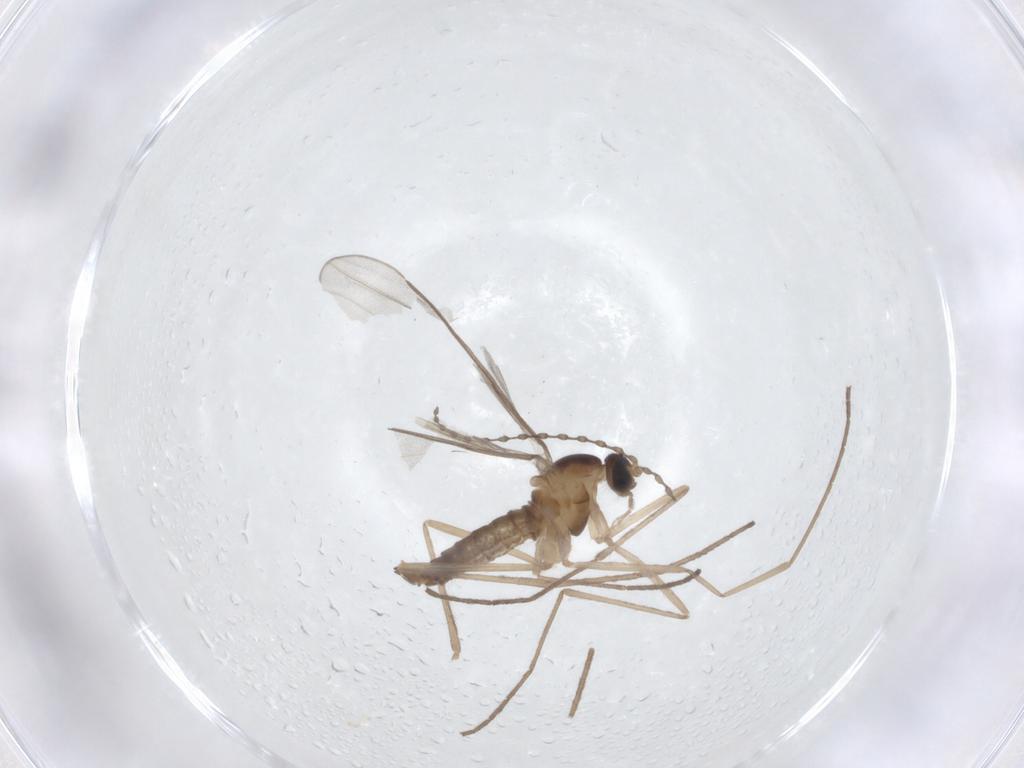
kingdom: Animalia
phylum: Arthropoda
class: Insecta
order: Diptera
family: Cecidomyiidae
